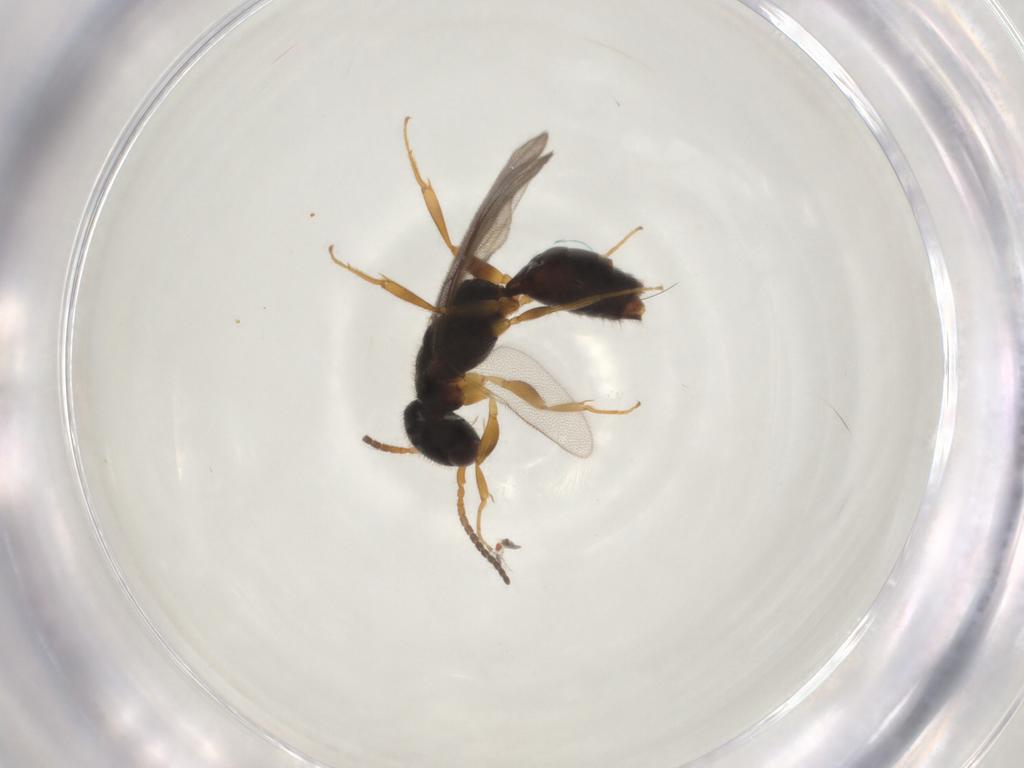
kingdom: Animalia
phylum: Arthropoda
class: Insecta
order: Hymenoptera
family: Bethylidae
